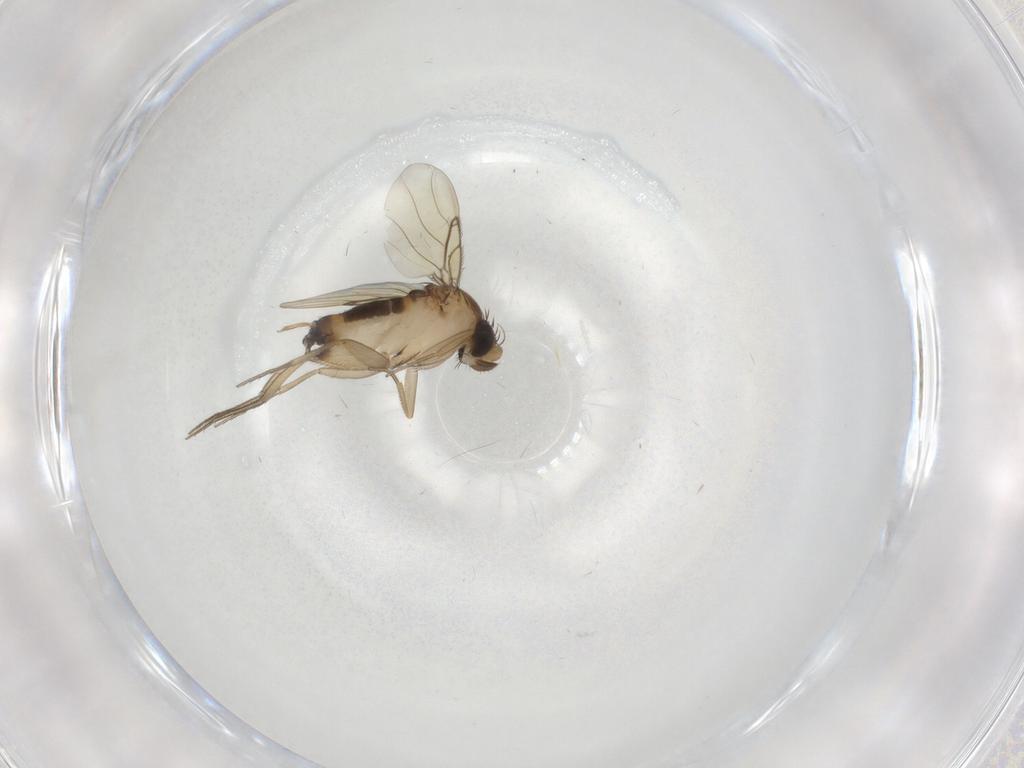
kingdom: Animalia
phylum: Arthropoda
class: Insecta
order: Diptera
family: Phoridae
